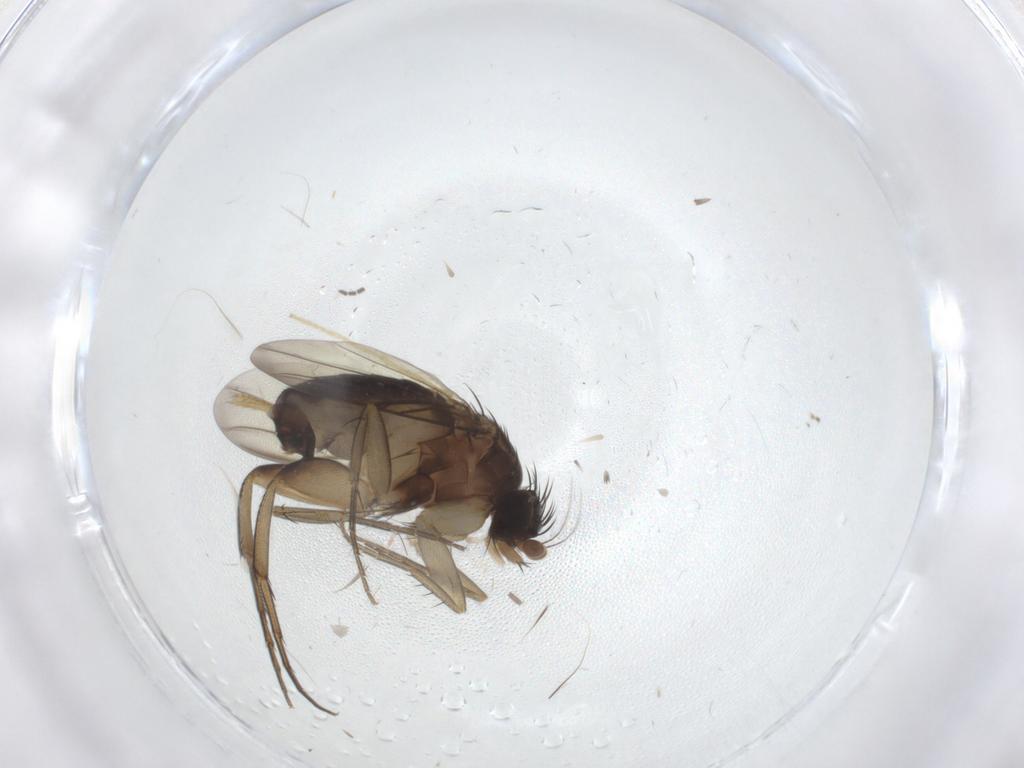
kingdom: Animalia
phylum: Arthropoda
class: Insecta
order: Diptera
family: Phoridae
